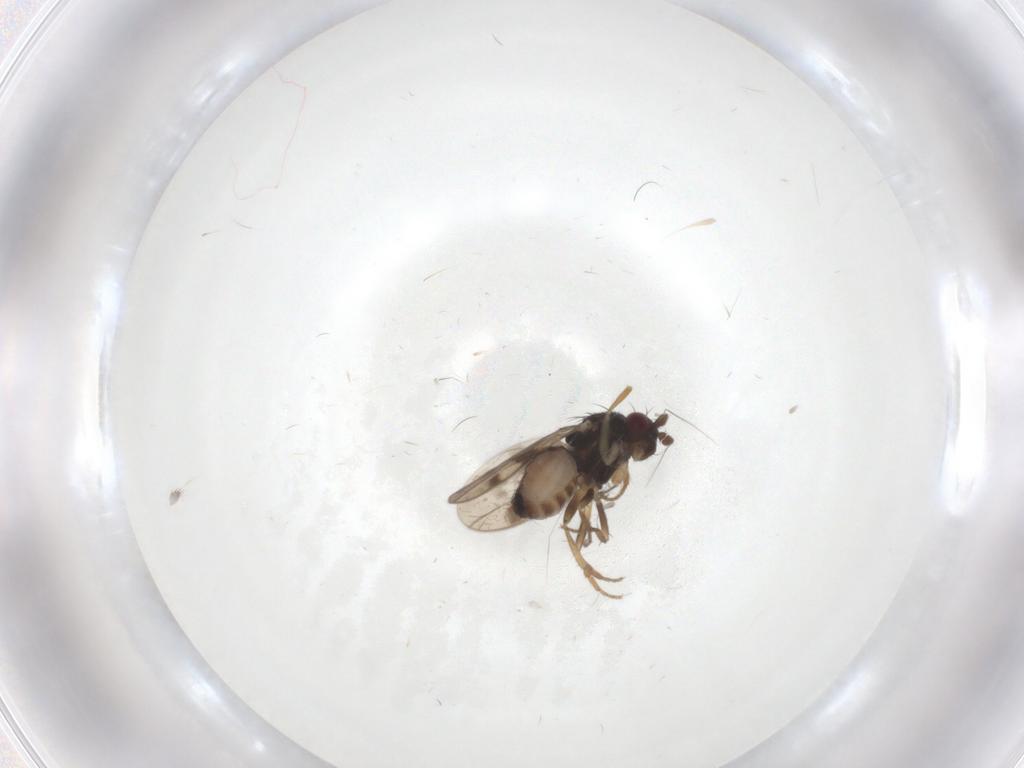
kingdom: Animalia
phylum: Arthropoda
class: Insecta
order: Diptera
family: Sphaeroceridae
